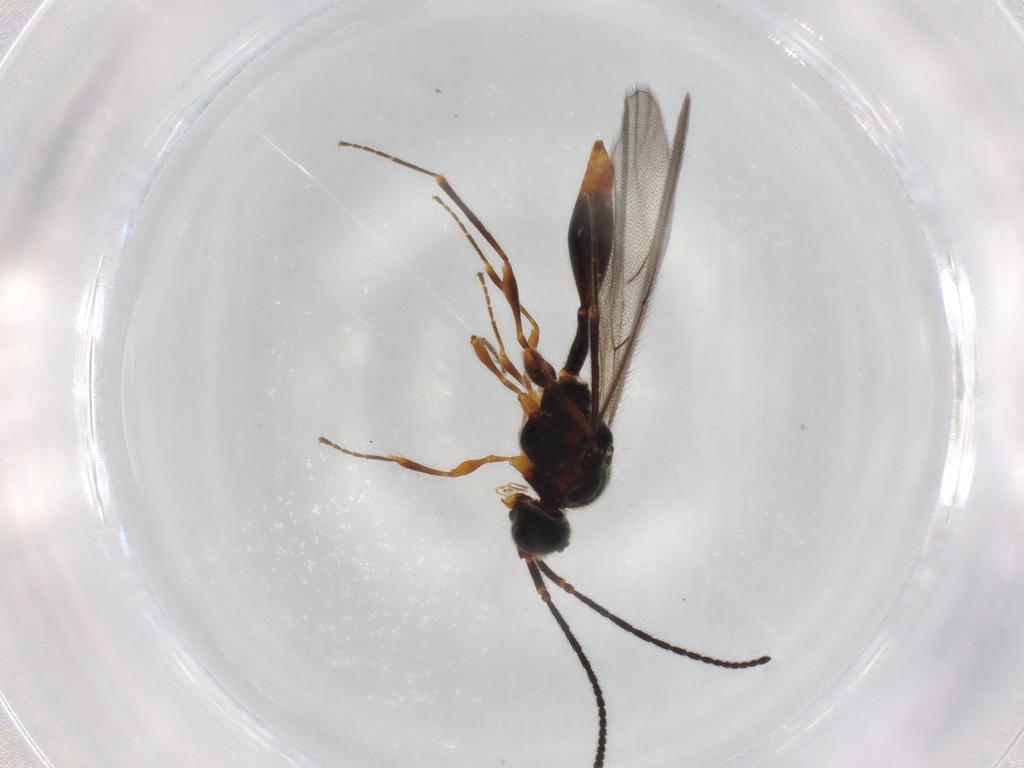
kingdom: Animalia
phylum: Arthropoda
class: Insecta
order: Hymenoptera
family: Diapriidae
